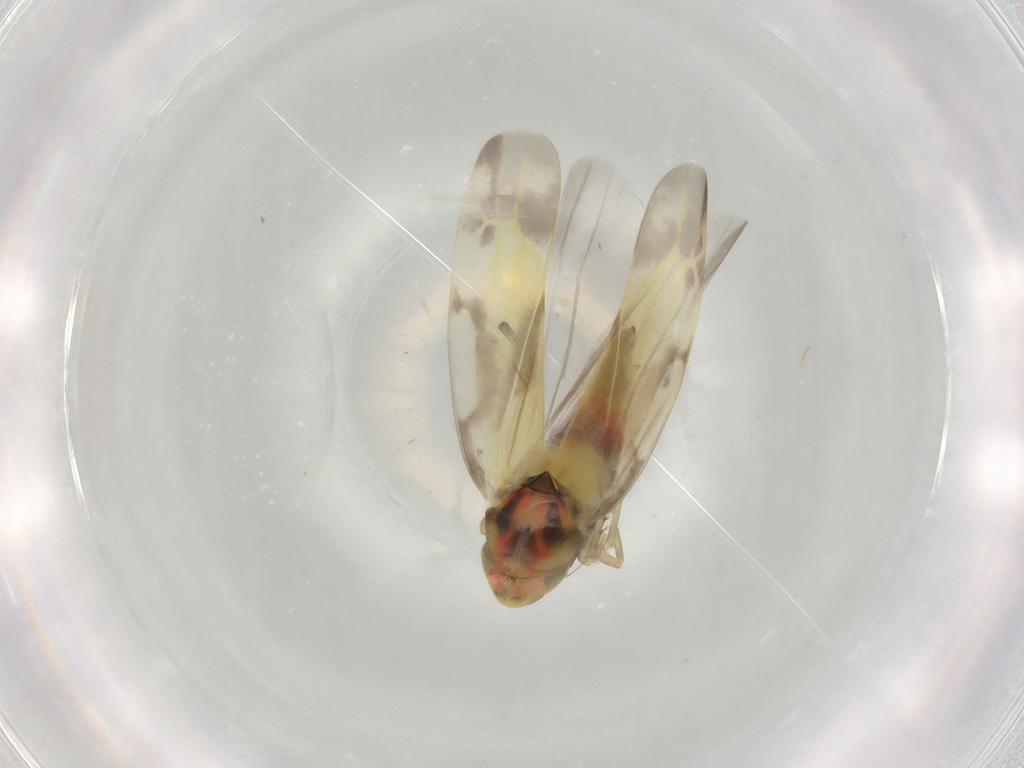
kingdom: Animalia
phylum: Arthropoda
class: Insecta
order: Hemiptera
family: Cicadellidae
